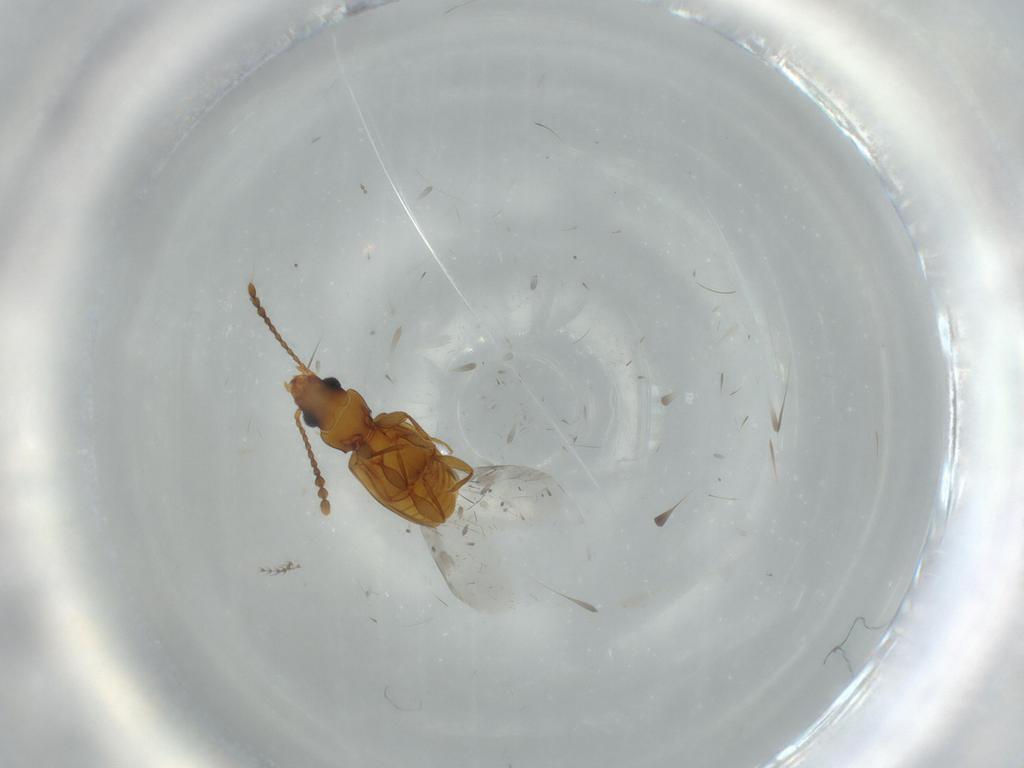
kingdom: Animalia
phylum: Arthropoda
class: Insecta
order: Coleoptera
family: Laemophloeidae
